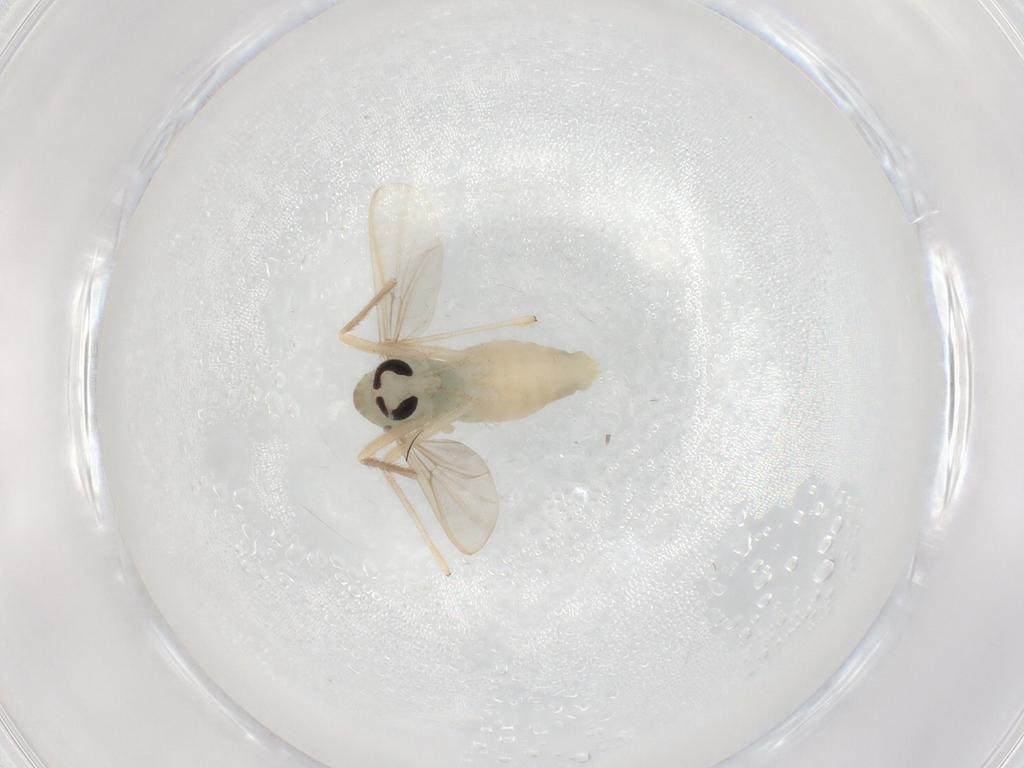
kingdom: Animalia
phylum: Arthropoda
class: Insecta
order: Diptera
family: Chironomidae
